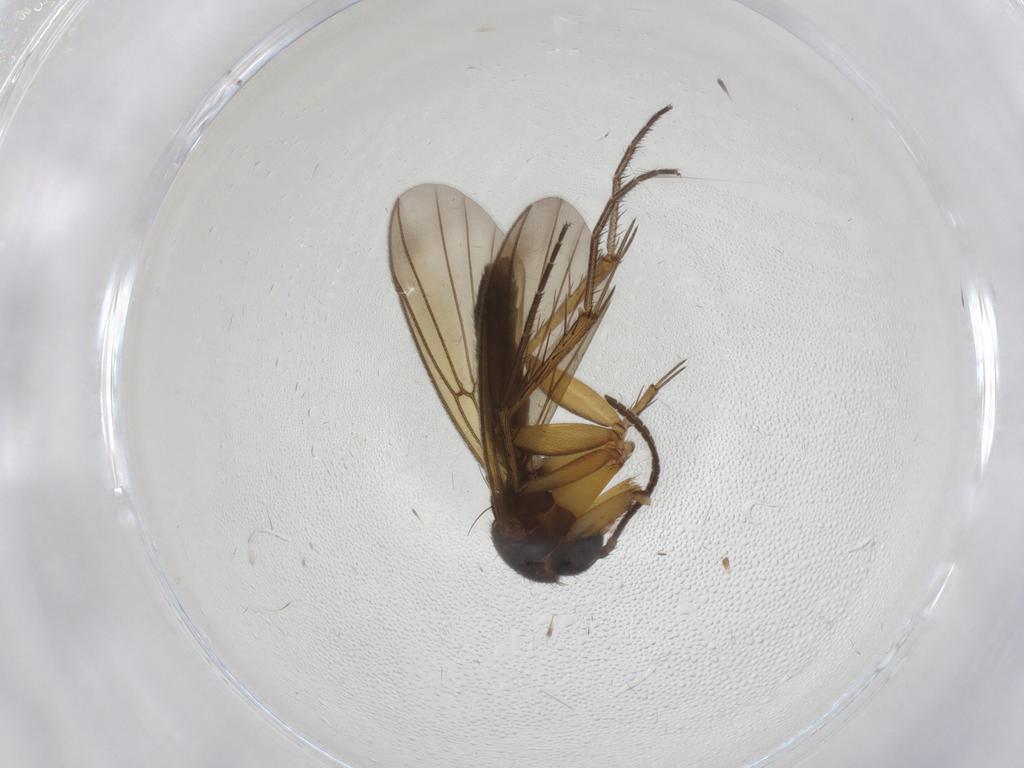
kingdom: Animalia
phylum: Arthropoda
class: Insecta
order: Diptera
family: Mycetophilidae
